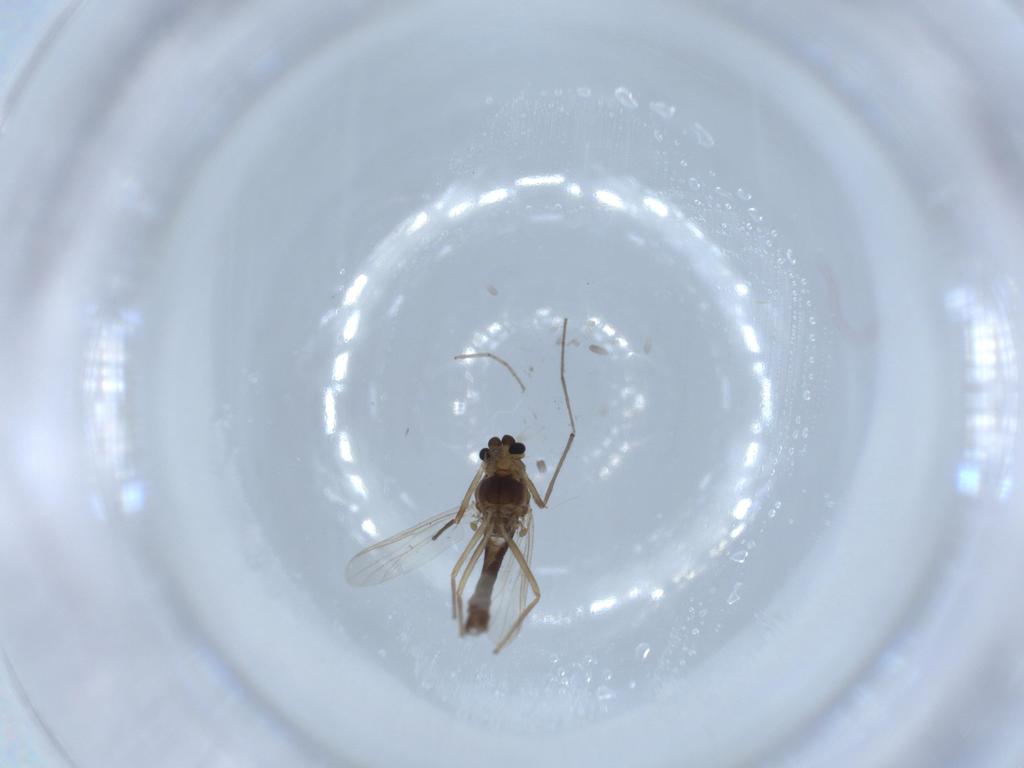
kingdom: Animalia
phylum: Arthropoda
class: Insecta
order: Diptera
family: Chironomidae
